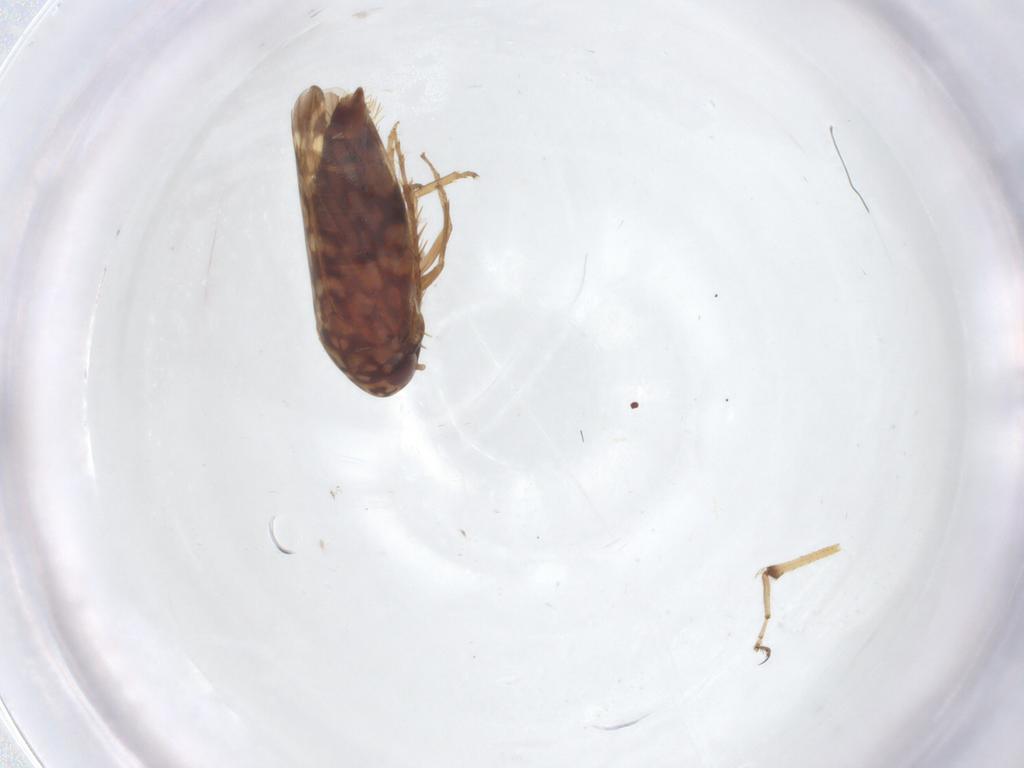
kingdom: Animalia
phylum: Arthropoda
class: Insecta
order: Hemiptera
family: Cicadellidae
